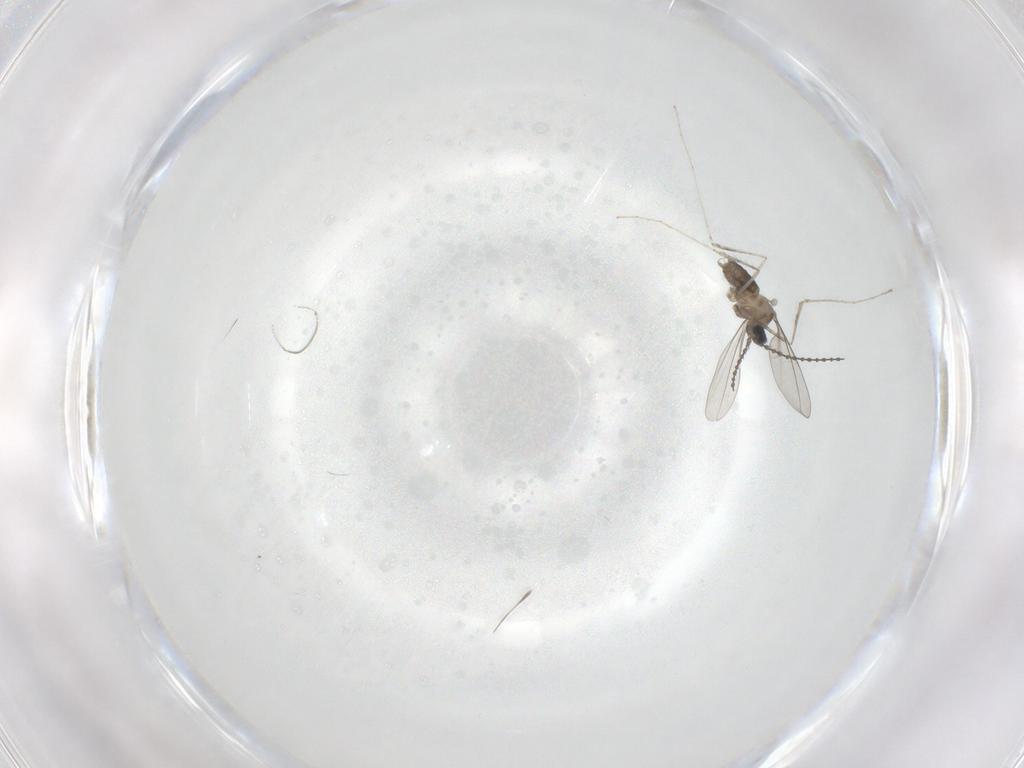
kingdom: Animalia
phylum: Arthropoda
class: Insecta
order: Diptera
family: Cecidomyiidae
